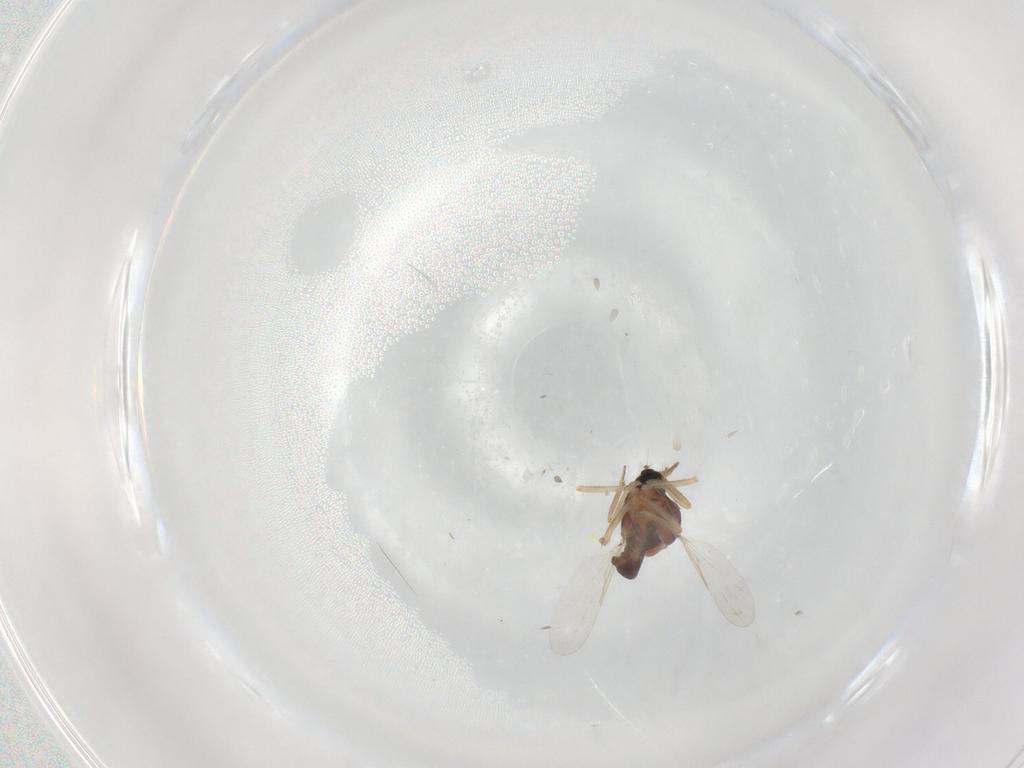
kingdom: Animalia
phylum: Arthropoda
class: Insecta
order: Diptera
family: Ceratopogonidae
